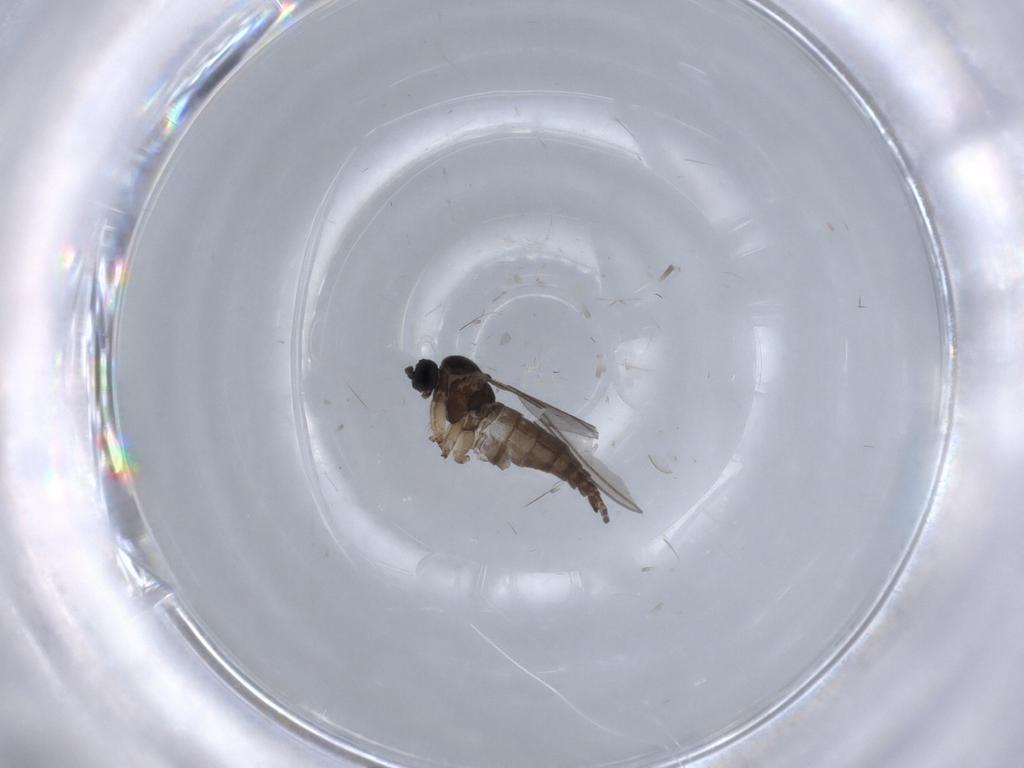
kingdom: Animalia
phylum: Arthropoda
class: Insecta
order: Diptera
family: Sciaridae
